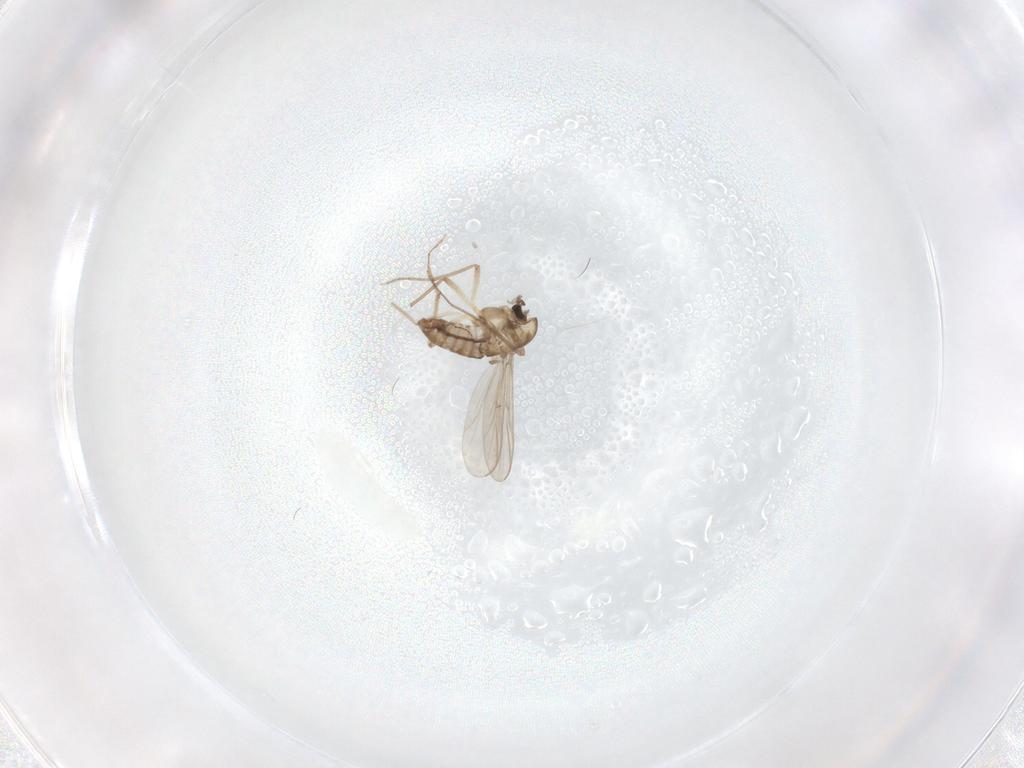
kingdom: Animalia
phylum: Arthropoda
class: Insecta
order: Diptera
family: Chironomidae
